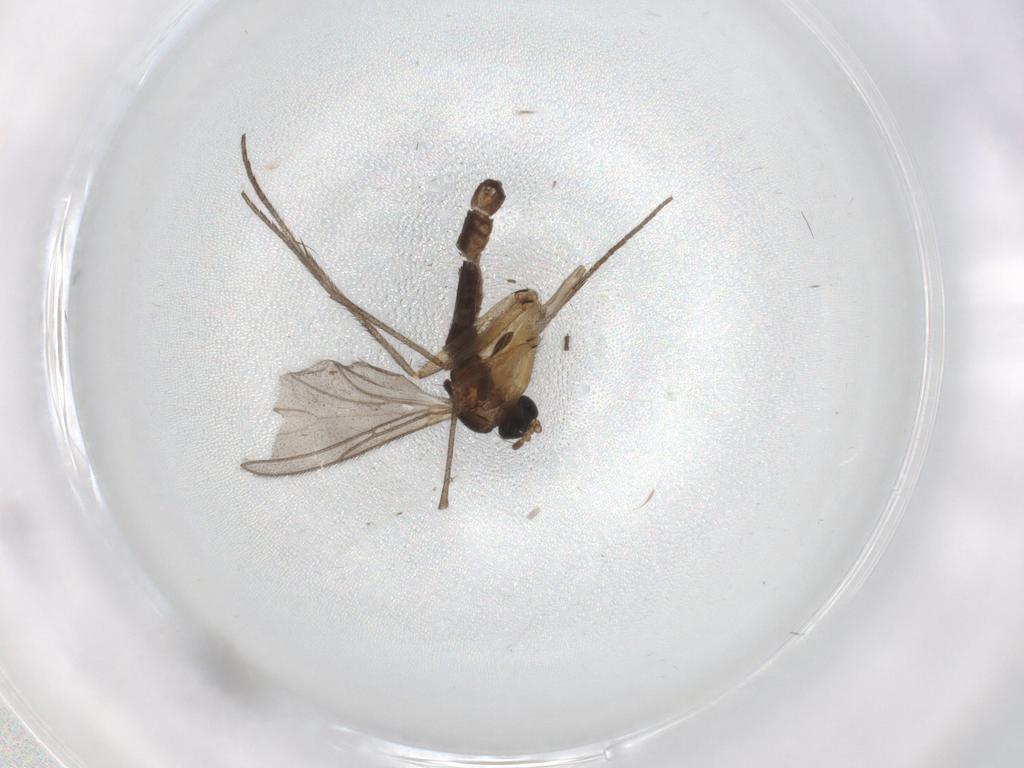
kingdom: Animalia
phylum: Arthropoda
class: Insecta
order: Diptera
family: Sciaridae
